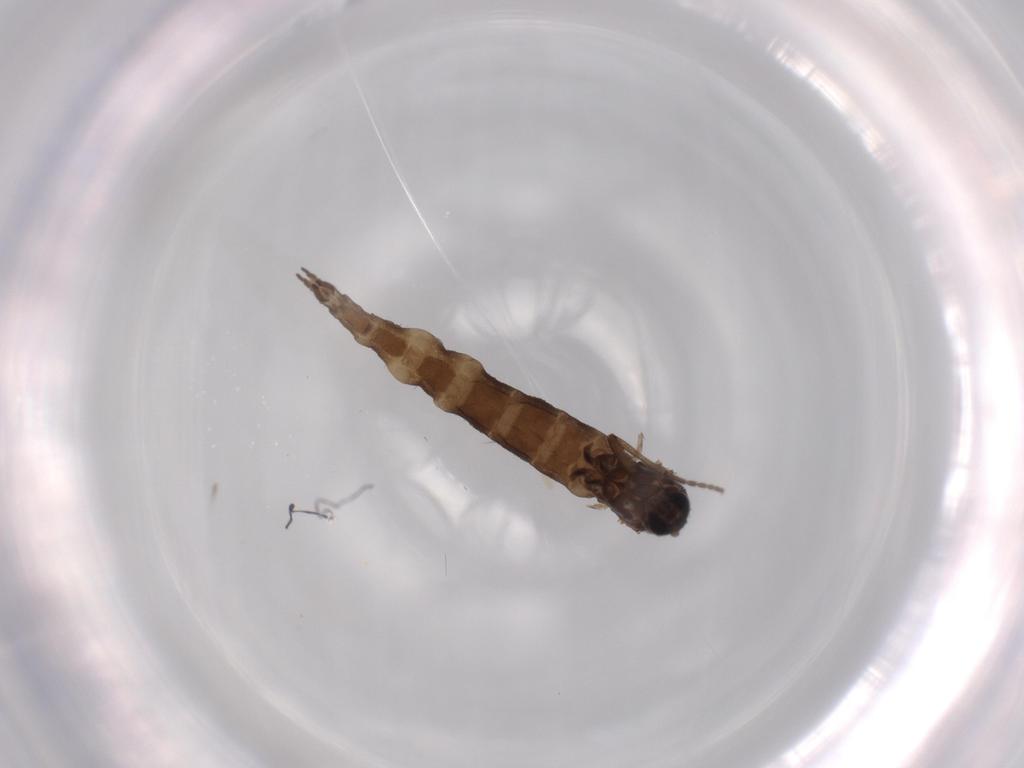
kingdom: Animalia
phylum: Arthropoda
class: Insecta
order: Diptera
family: Sciaridae
